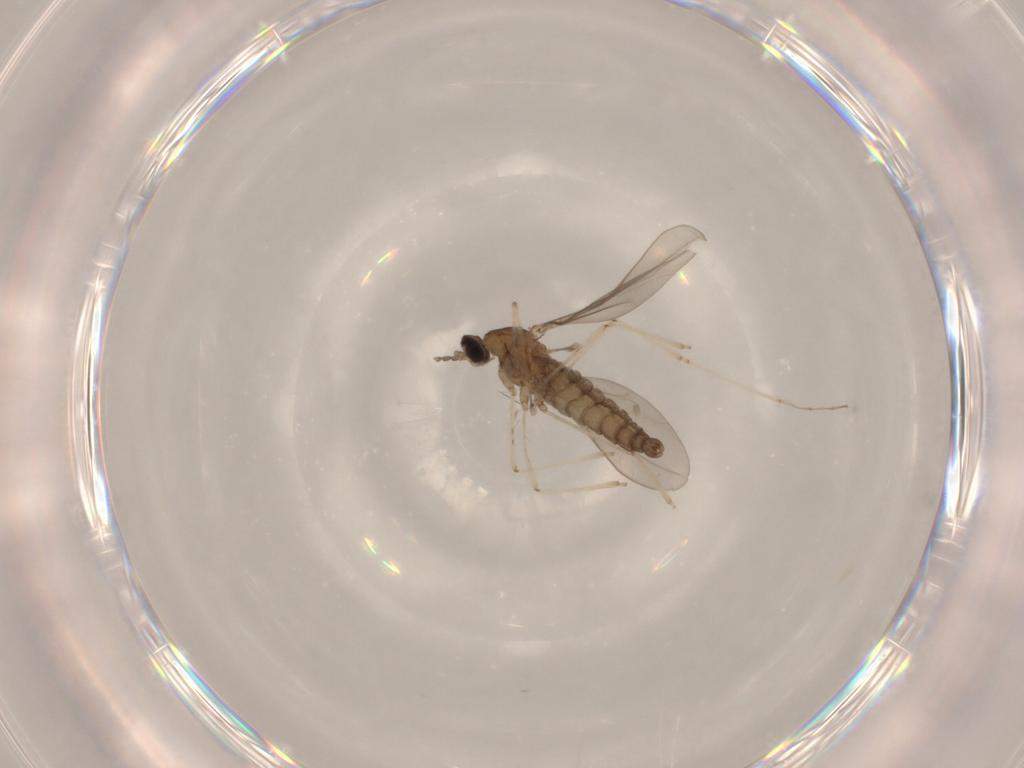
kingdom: Animalia
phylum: Arthropoda
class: Insecta
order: Diptera
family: Cecidomyiidae
